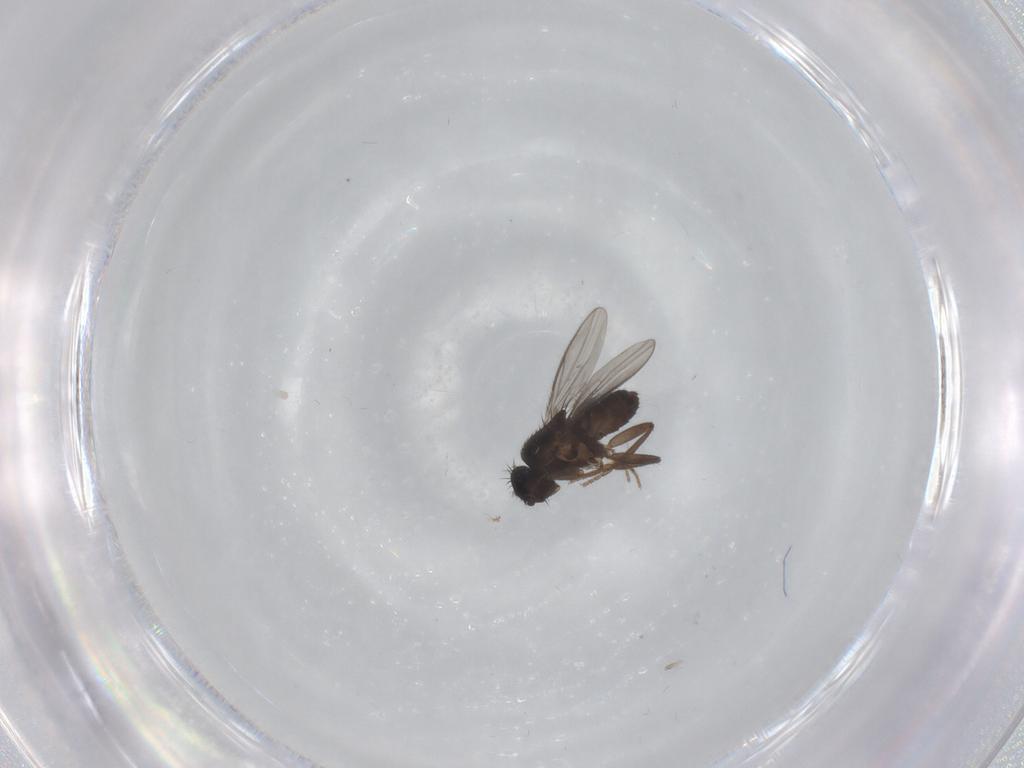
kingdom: Animalia
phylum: Arthropoda
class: Insecta
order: Diptera
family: Sphaeroceridae
